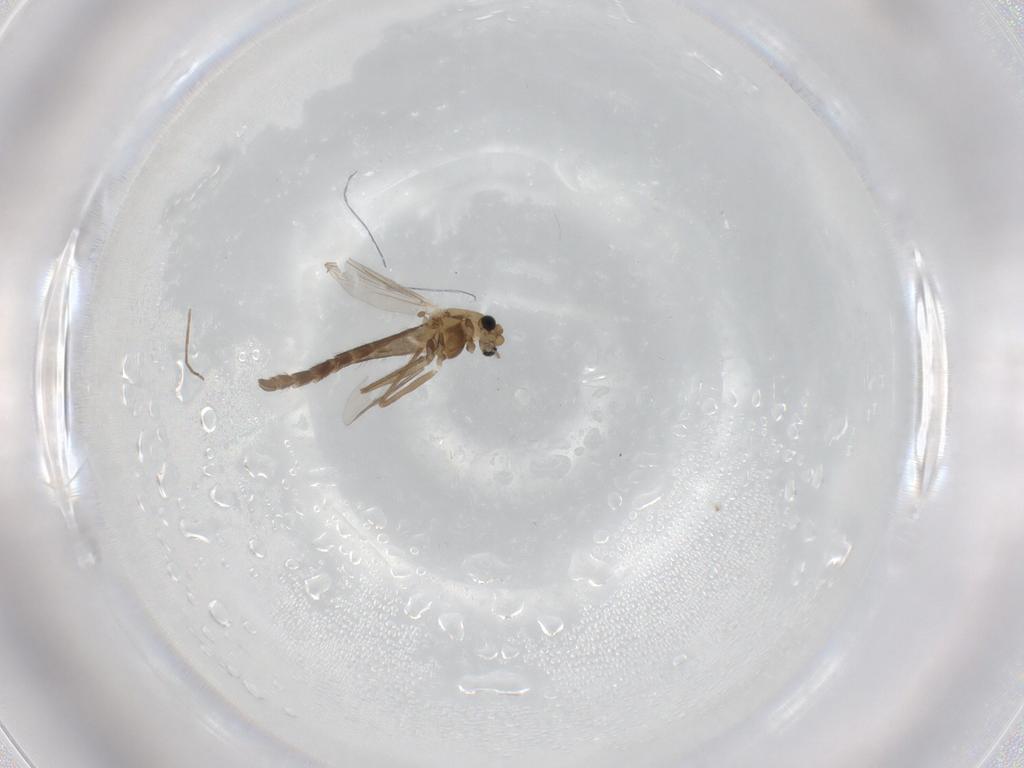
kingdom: Animalia
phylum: Arthropoda
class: Insecta
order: Diptera
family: Chironomidae
